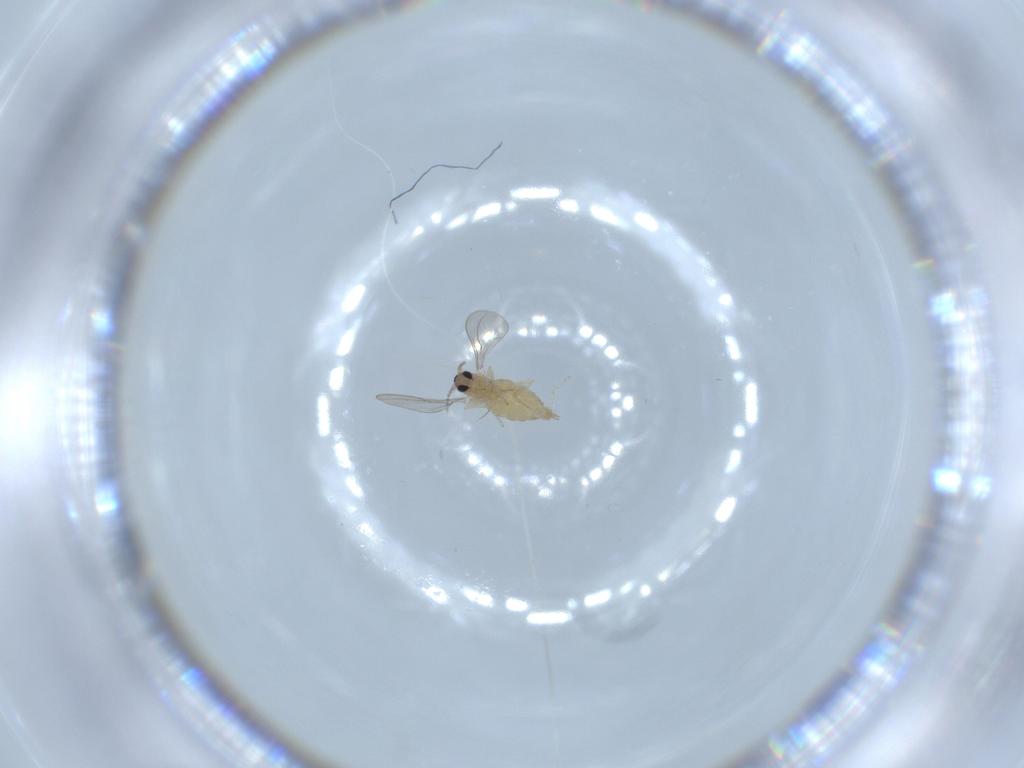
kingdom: Animalia
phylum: Arthropoda
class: Insecta
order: Diptera
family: Cecidomyiidae
